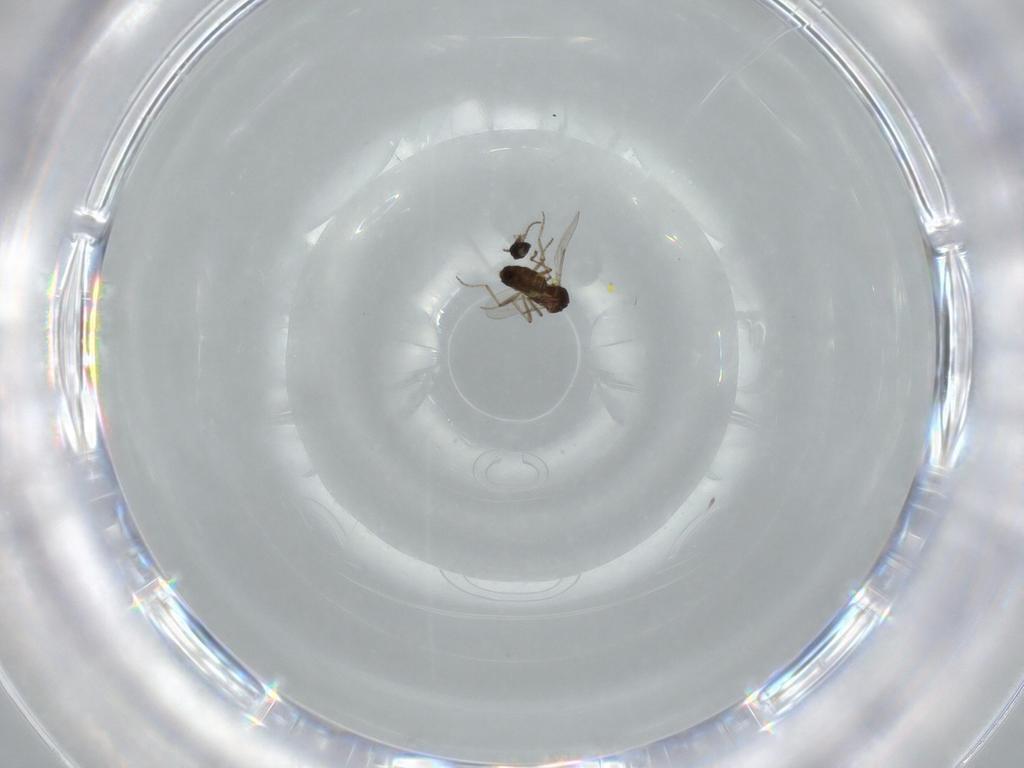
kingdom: Animalia
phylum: Arthropoda
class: Insecta
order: Diptera
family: Ceratopogonidae
